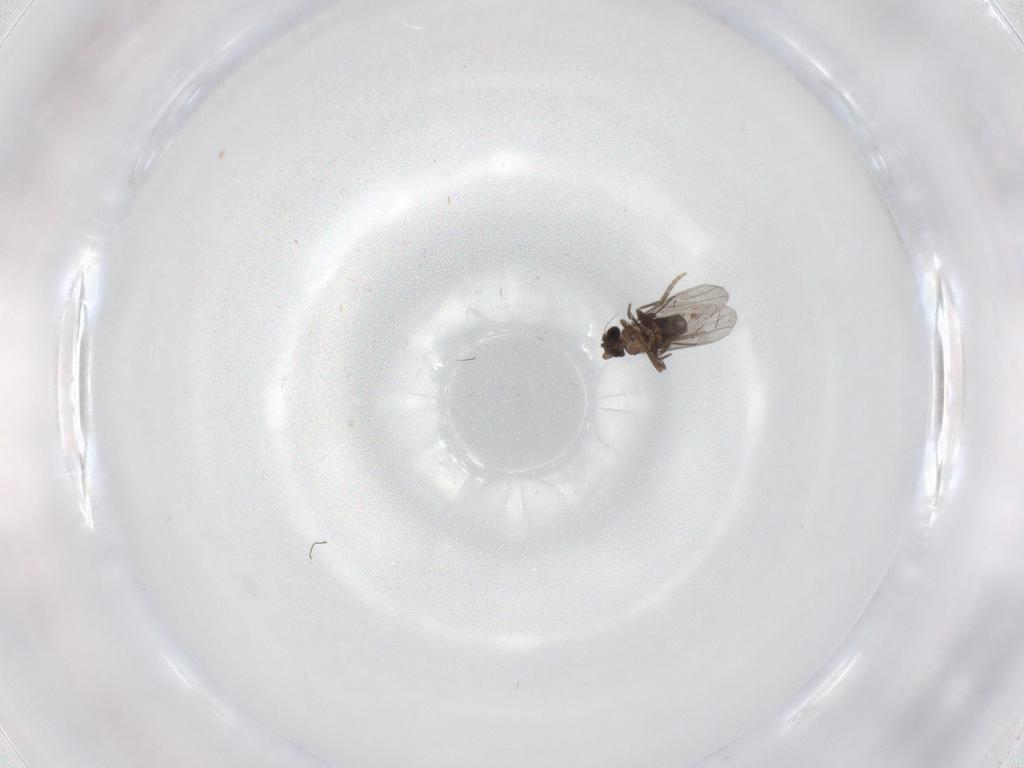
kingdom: Animalia
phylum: Arthropoda
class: Insecta
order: Diptera
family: Phoridae
